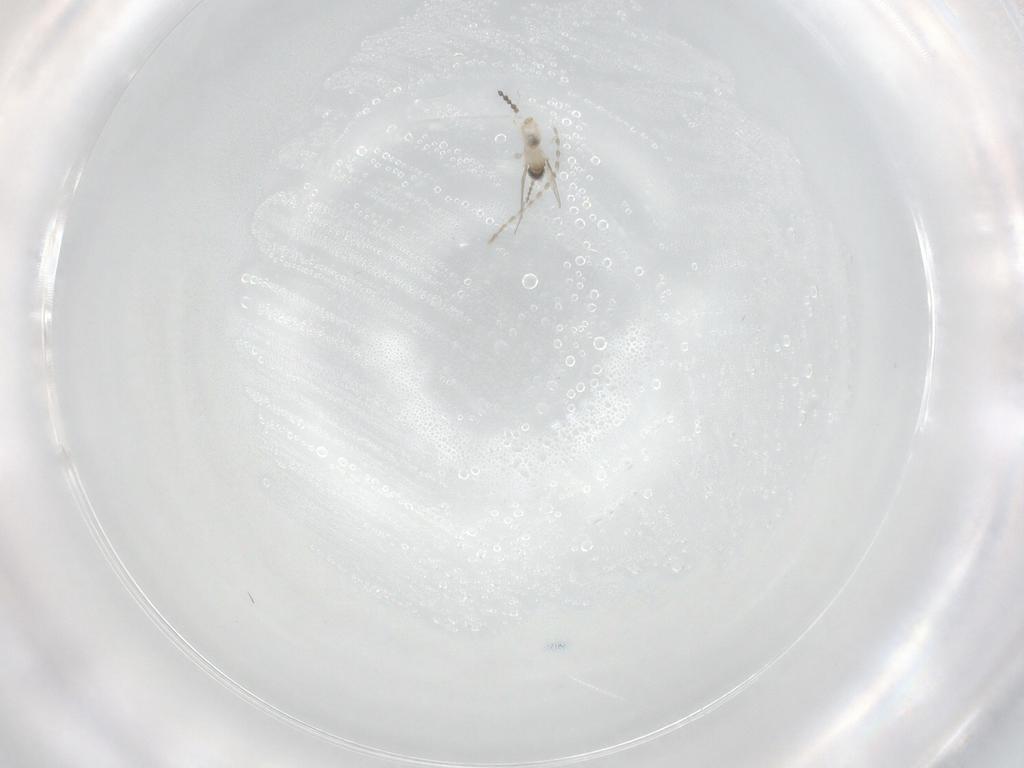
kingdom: Animalia
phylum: Arthropoda
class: Insecta
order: Diptera
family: Cecidomyiidae
